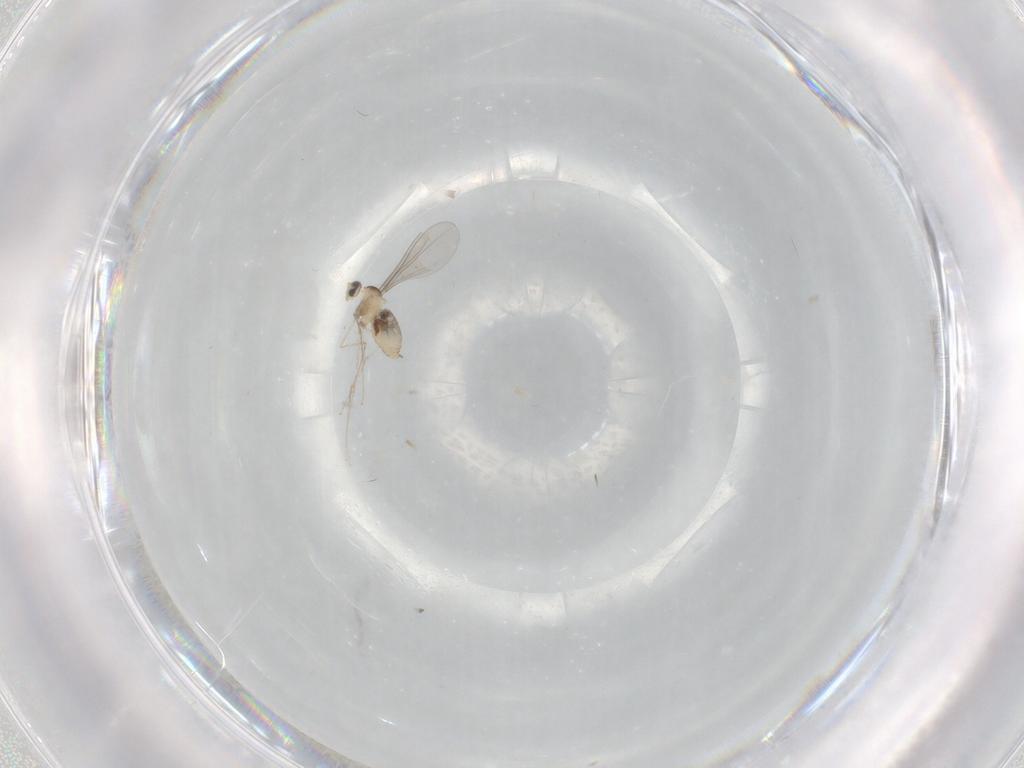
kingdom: Animalia
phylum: Arthropoda
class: Insecta
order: Diptera
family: Cecidomyiidae
